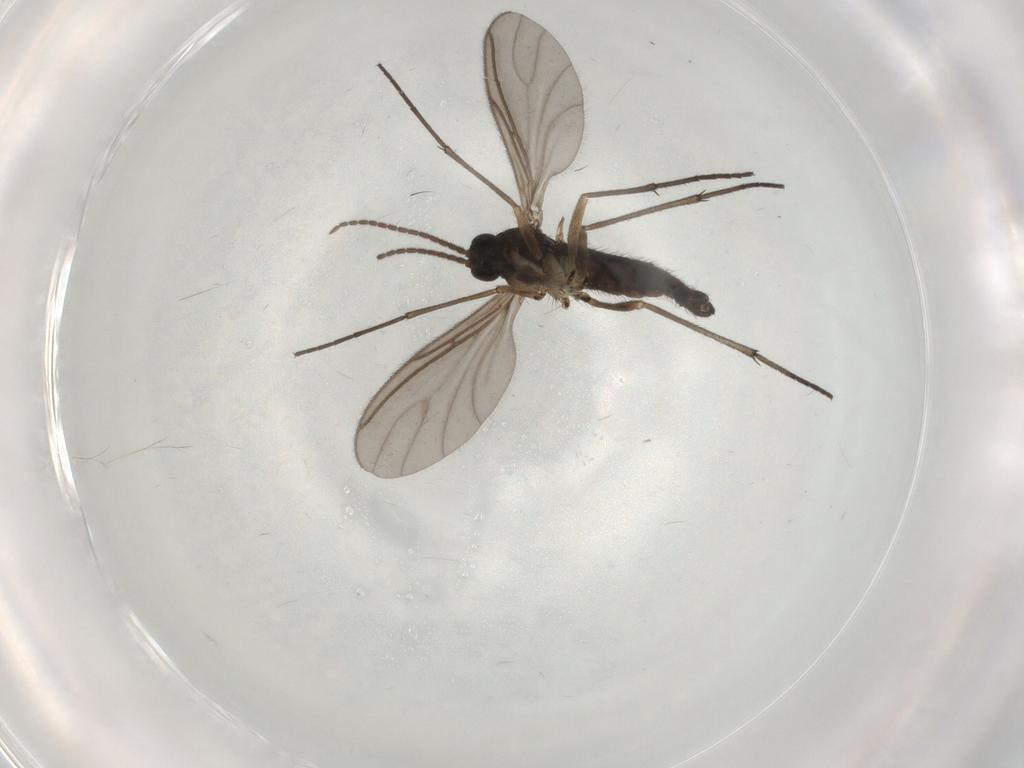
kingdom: Animalia
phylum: Arthropoda
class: Insecta
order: Diptera
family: Sciaridae
